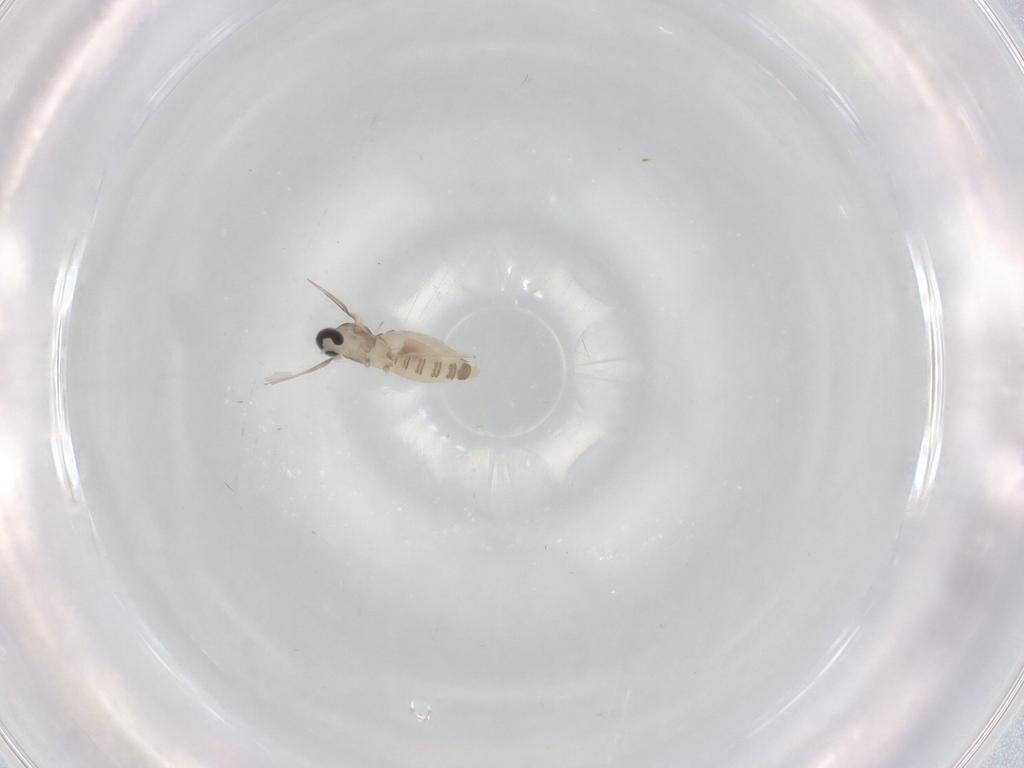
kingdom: Animalia
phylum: Arthropoda
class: Insecta
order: Diptera
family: Cecidomyiidae
